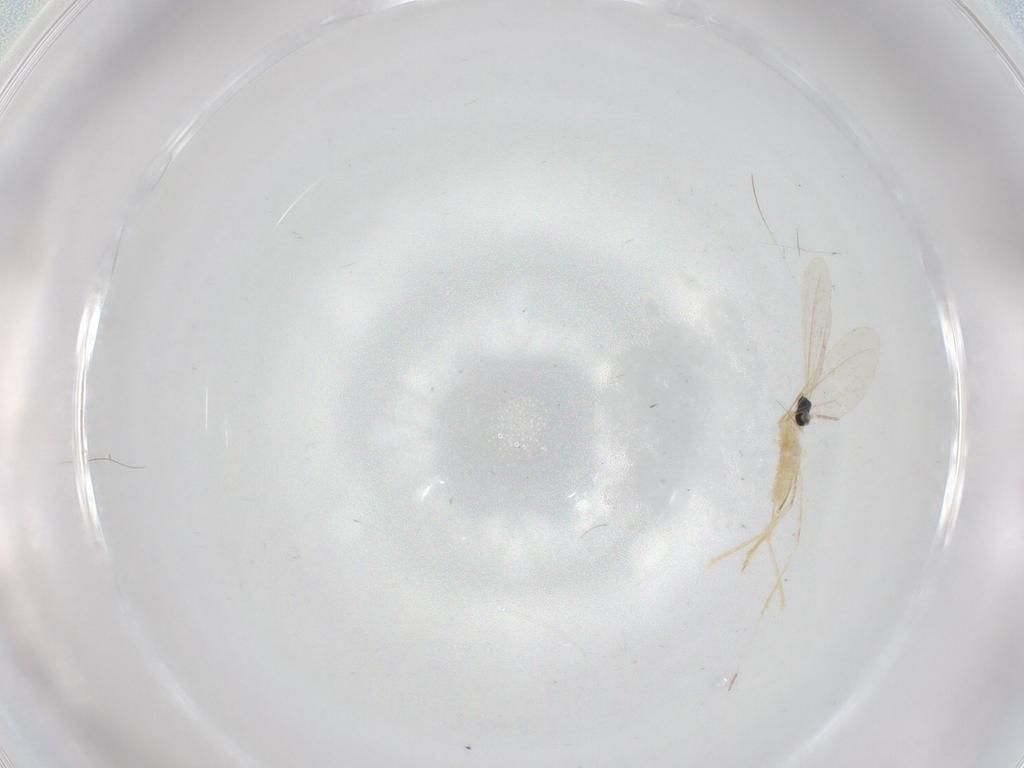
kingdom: Animalia
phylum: Arthropoda
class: Insecta
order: Diptera
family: Cecidomyiidae
